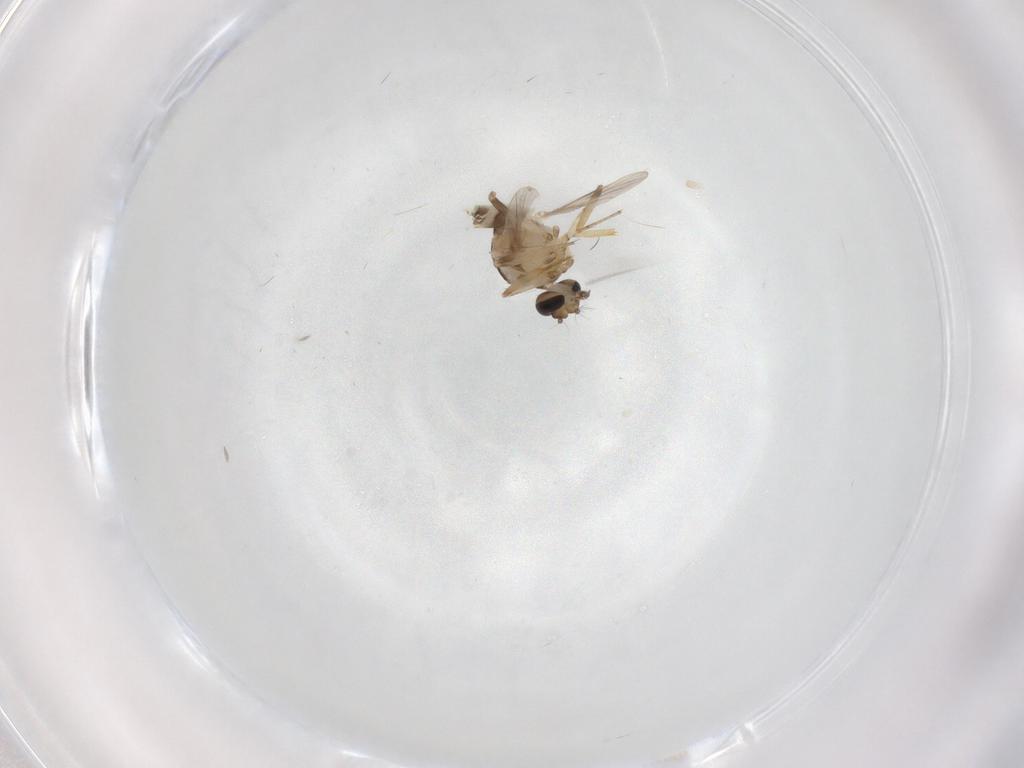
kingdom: Animalia
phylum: Arthropoda
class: Insecta
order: Diptera
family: Ceratopogonidae
